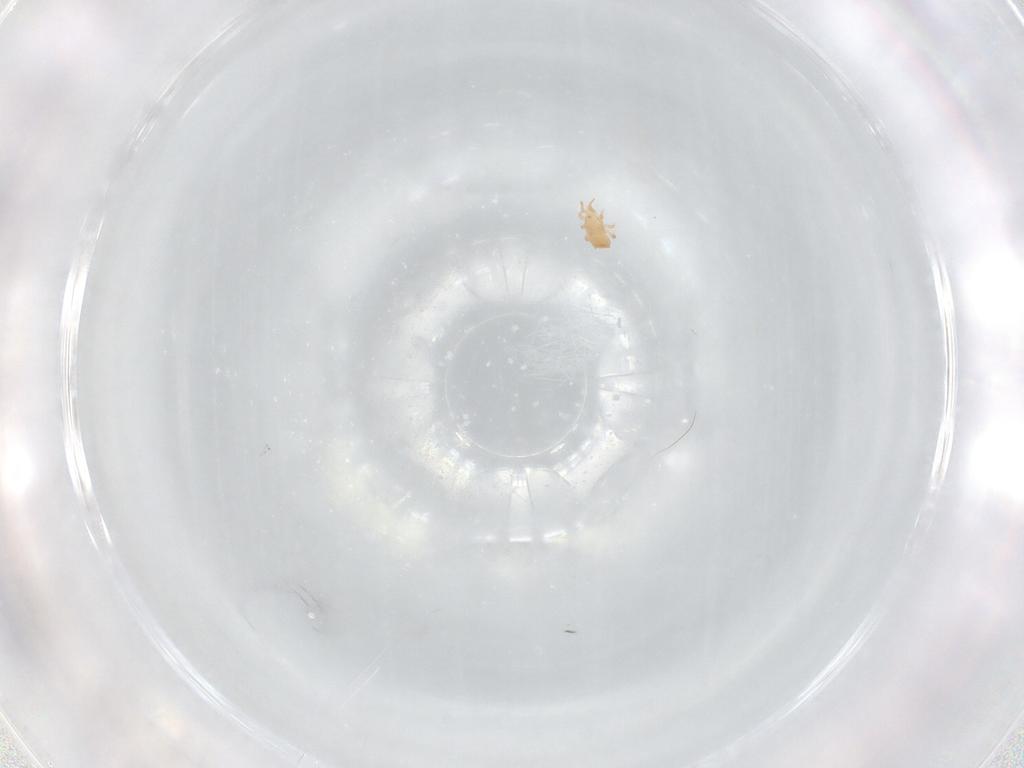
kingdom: Animalia
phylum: Arthropoda
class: Arachnida
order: Mesostigmata
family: Ascidae
